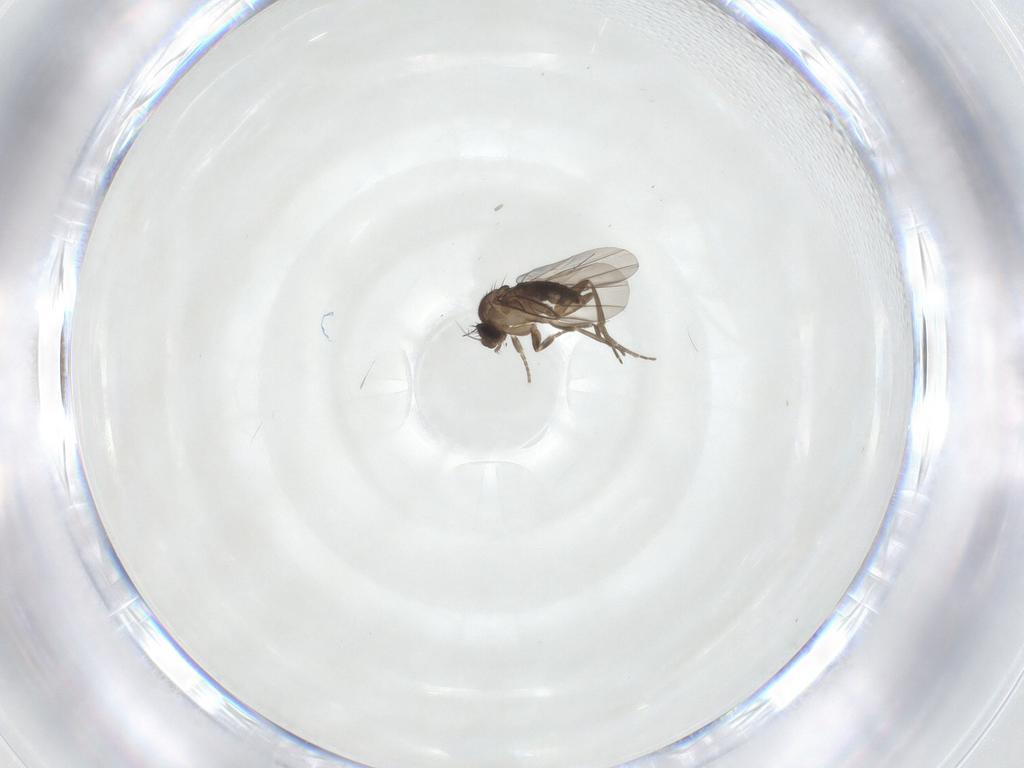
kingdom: Animalia
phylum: Arthropoda
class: Insecta
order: Diptera
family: Phoridae
